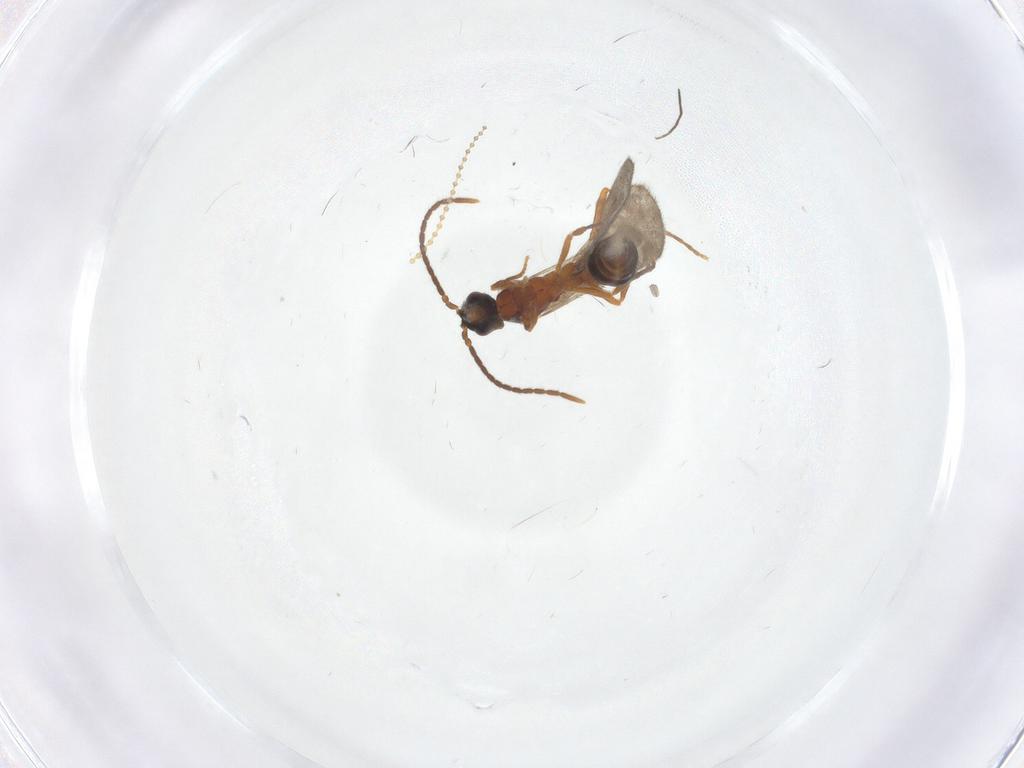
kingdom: Animalia
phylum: Arthropoda
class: Insecta
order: Hymenoptera
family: Formicidae
